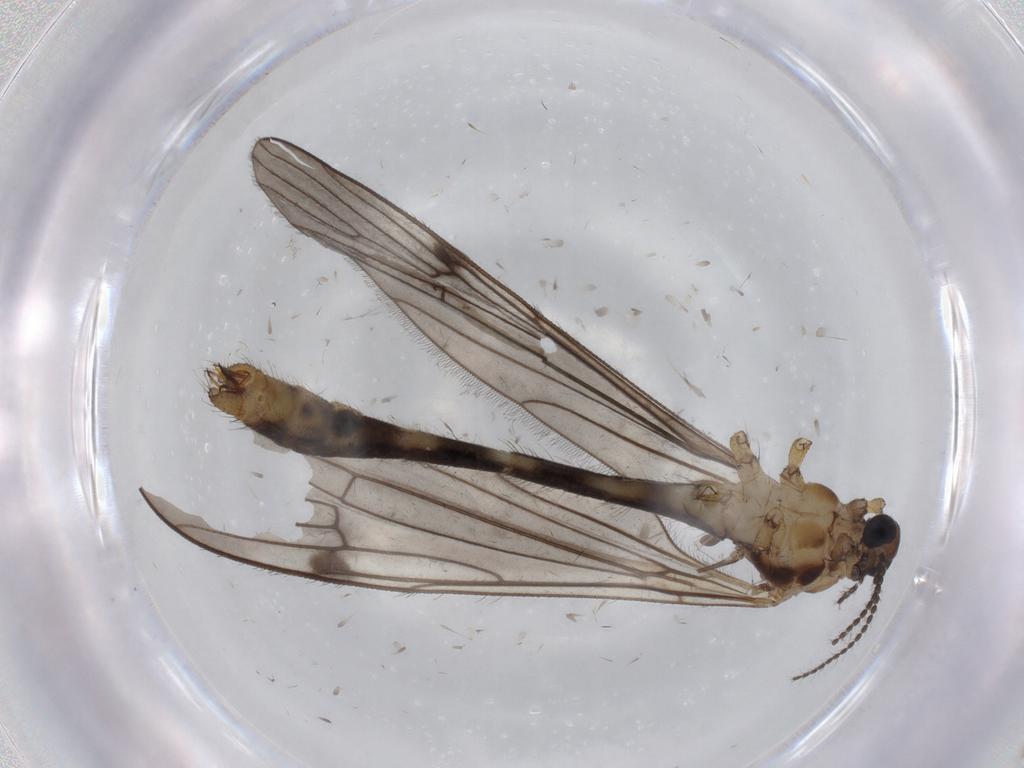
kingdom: Animalia
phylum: Arthropoda
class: Insecta
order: Diptera
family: Limoniidae
